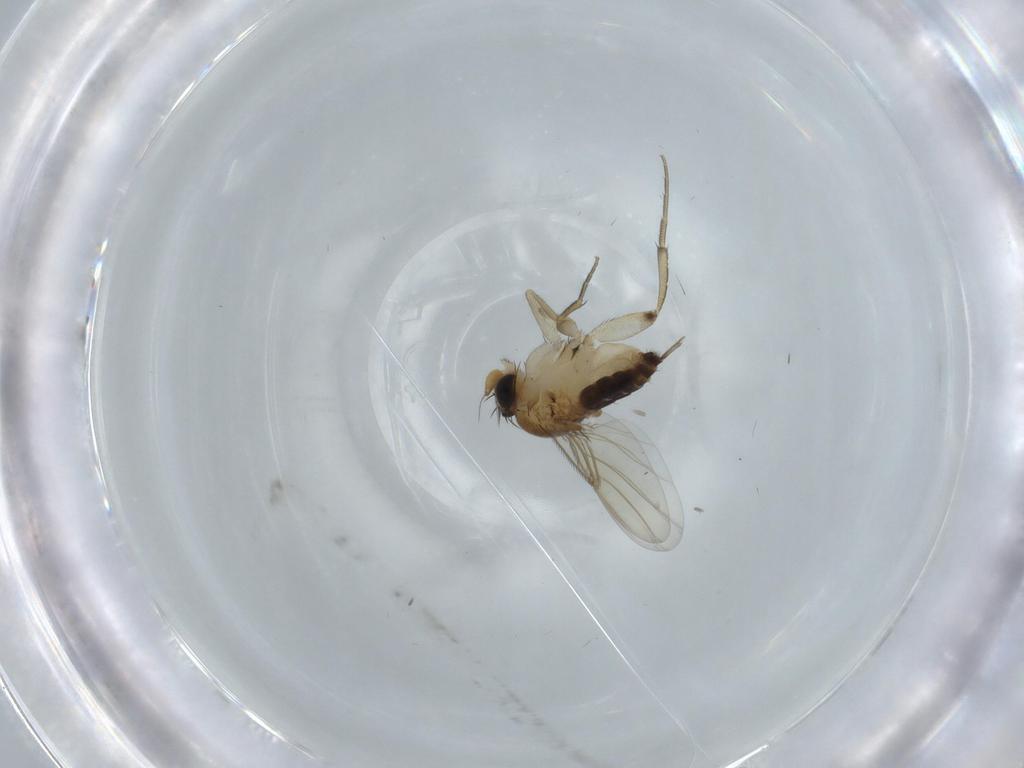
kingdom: Animalia
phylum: Arthropoda
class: Insecta
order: Diptera
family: Phoridae
